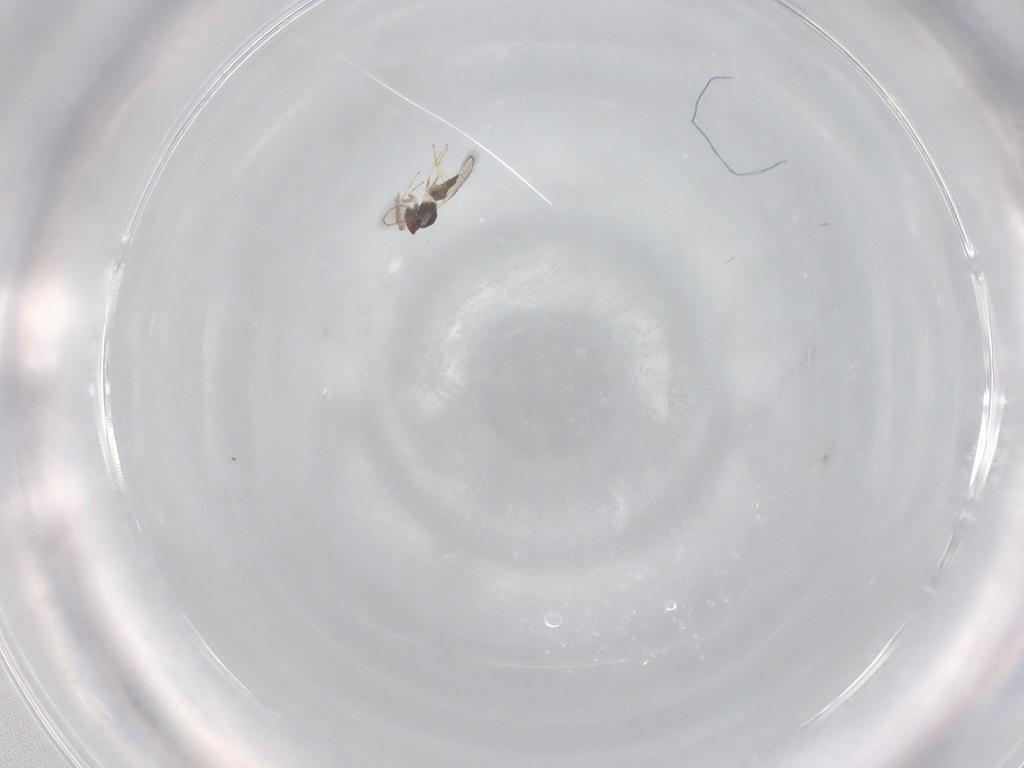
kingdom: Animalia
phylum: Arthropoda
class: Insecta
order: Hymenoptera
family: Eulophidae
